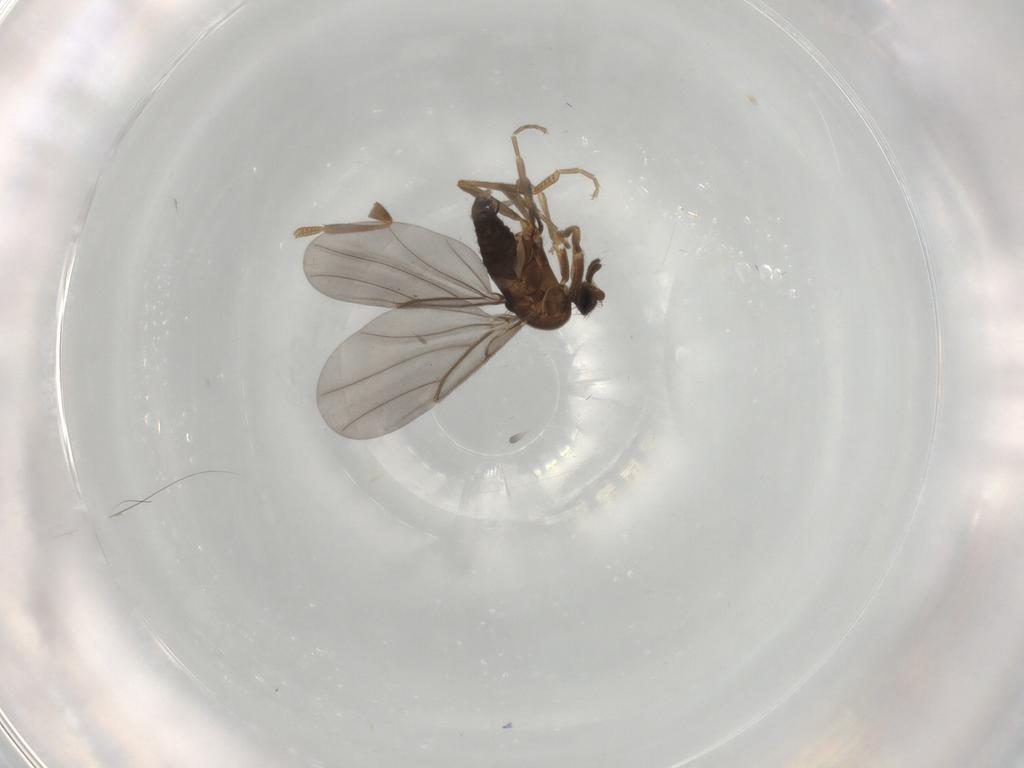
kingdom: Animalia
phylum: Arthropoda
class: Insecta
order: Diptera
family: Phoridae
